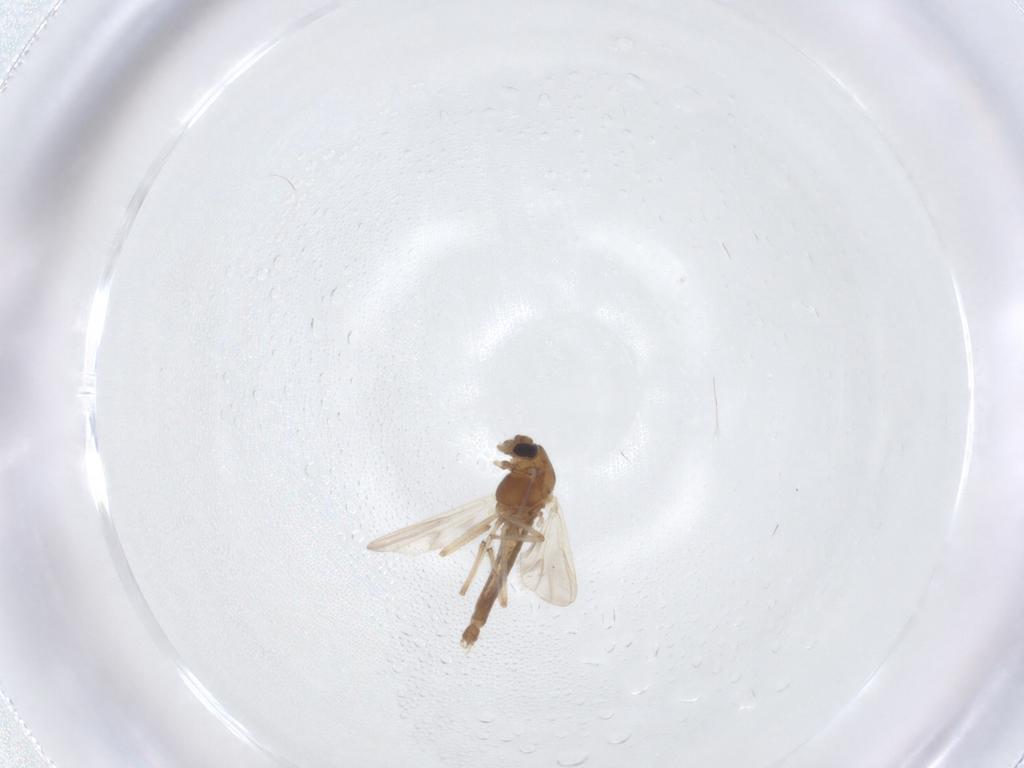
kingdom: Animalia
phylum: Arthropoda
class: Insecta
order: Diptera
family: Chironomidae
